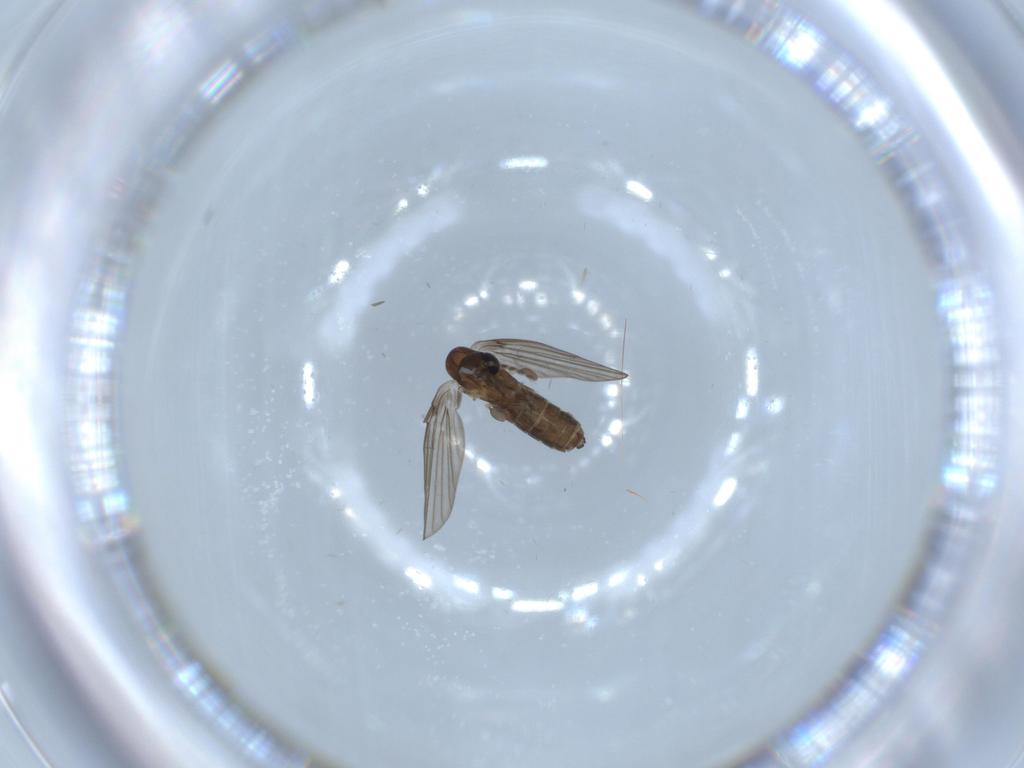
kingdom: Animalia
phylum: Arthropoda
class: Insecta
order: Diptera
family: Psychodidae
